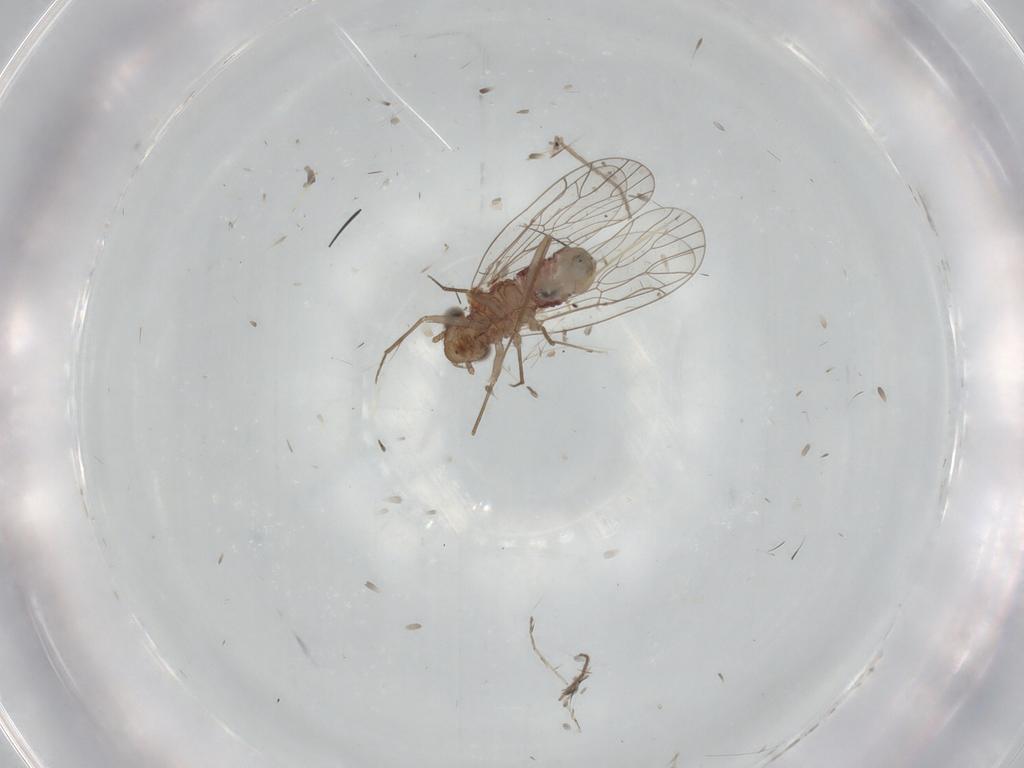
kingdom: Animalia
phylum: Arthropoda
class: Insecta
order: Psocodea
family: Amphientomidae
